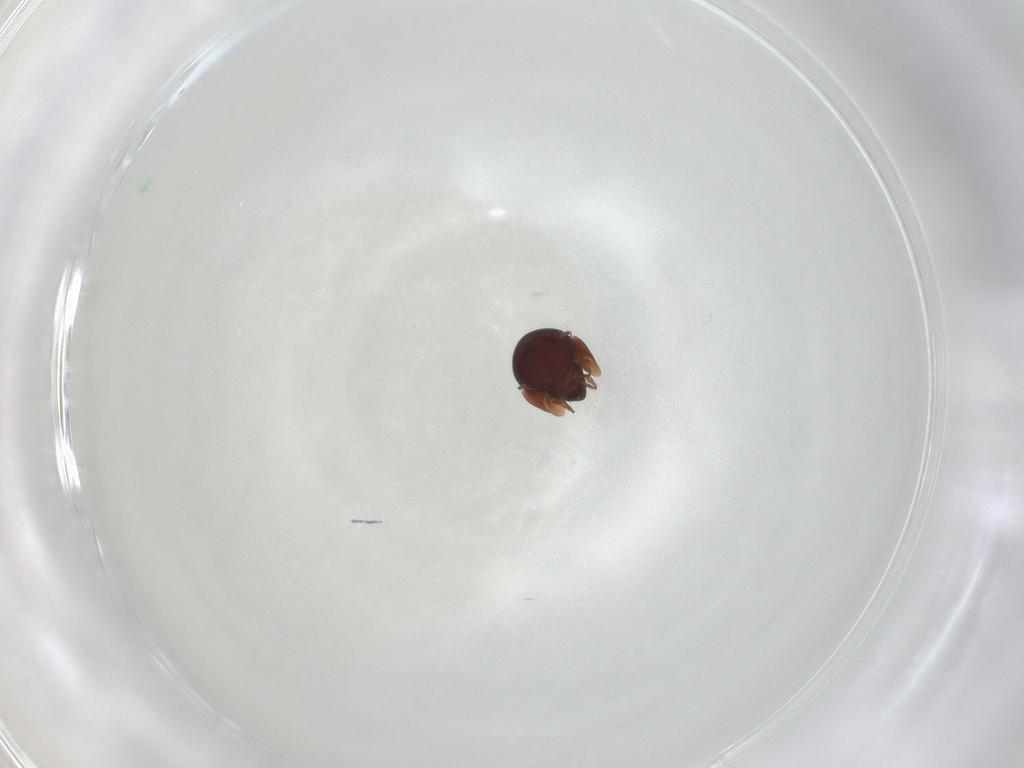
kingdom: Animalia
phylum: Arthropoda
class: Arachnida
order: Sarcoptiformes
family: Galumnidae
